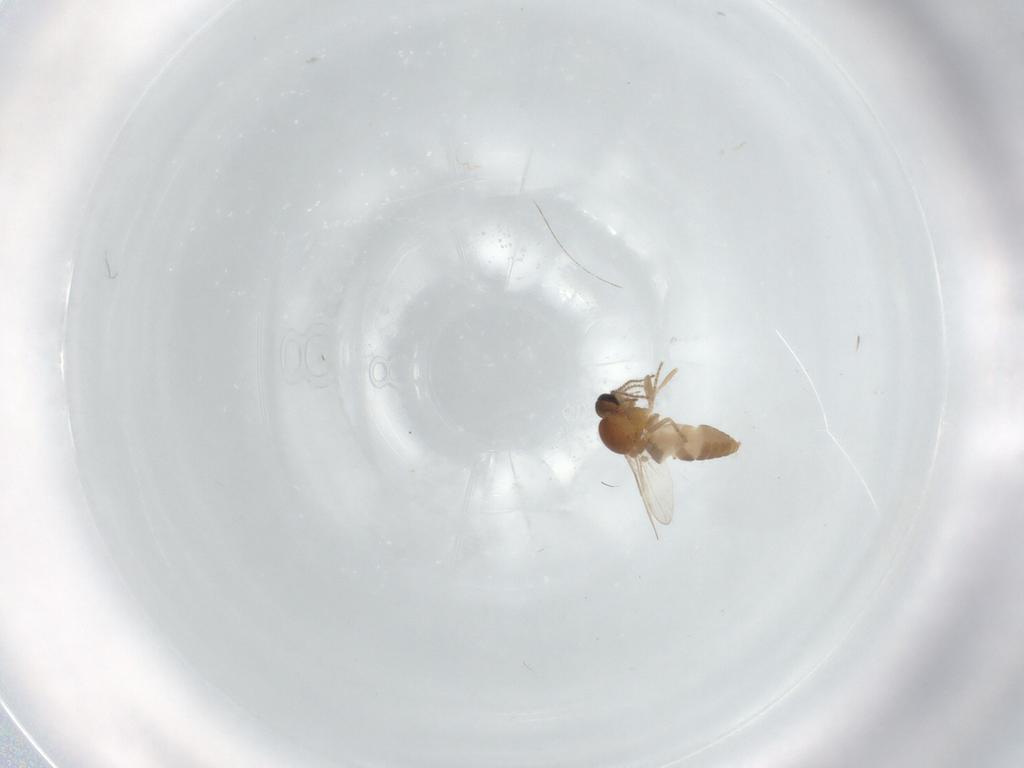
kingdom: Animalia
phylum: Arthropoda
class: Insecta
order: Diptera
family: Ceratopogonidae
